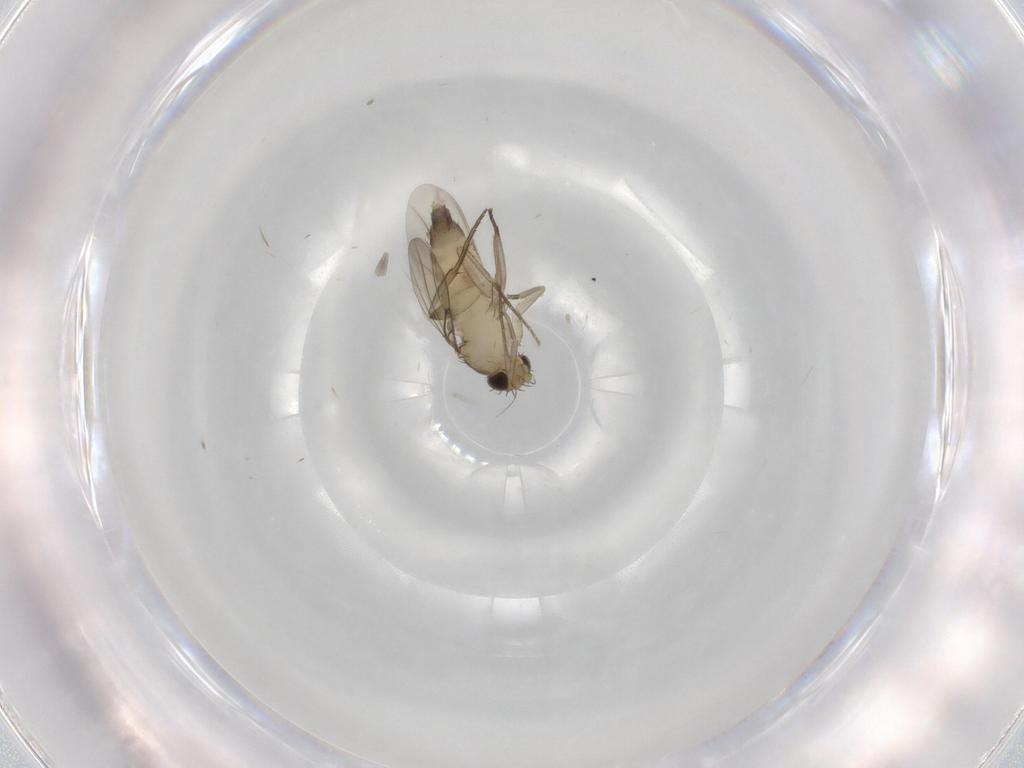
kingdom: Animalia
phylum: Arthropoda
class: Insecta
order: Diptera
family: Phoridae
